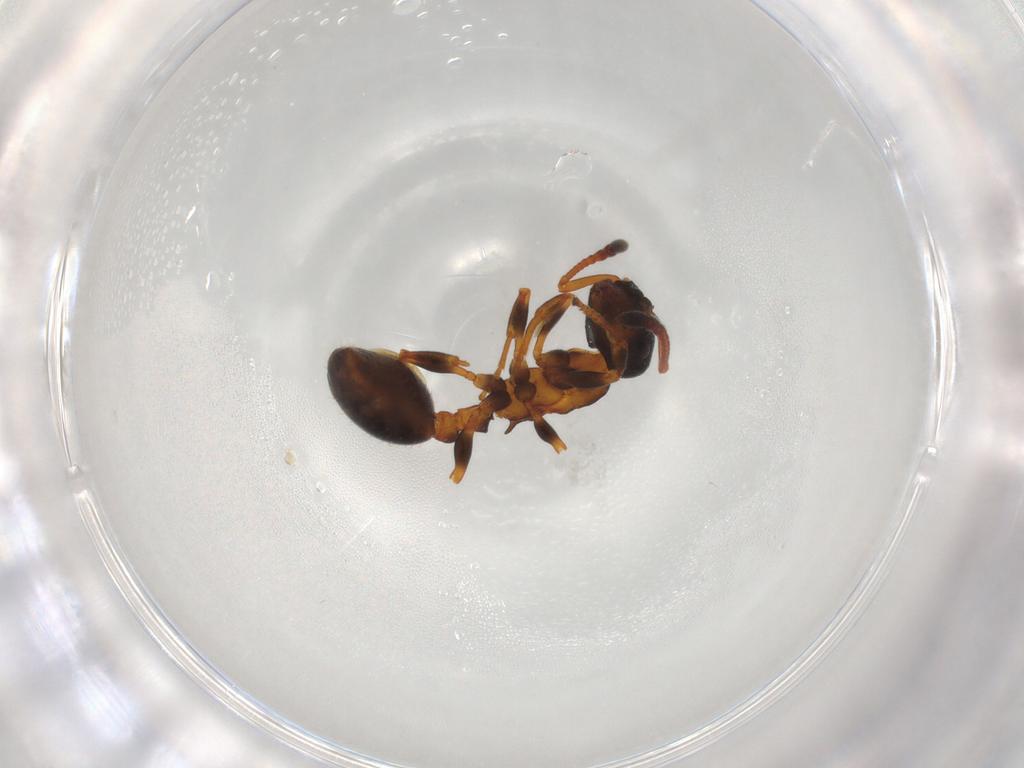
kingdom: Animalia
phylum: Arthropoda
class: Insecta
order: Hymenoptera
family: Formicidae
